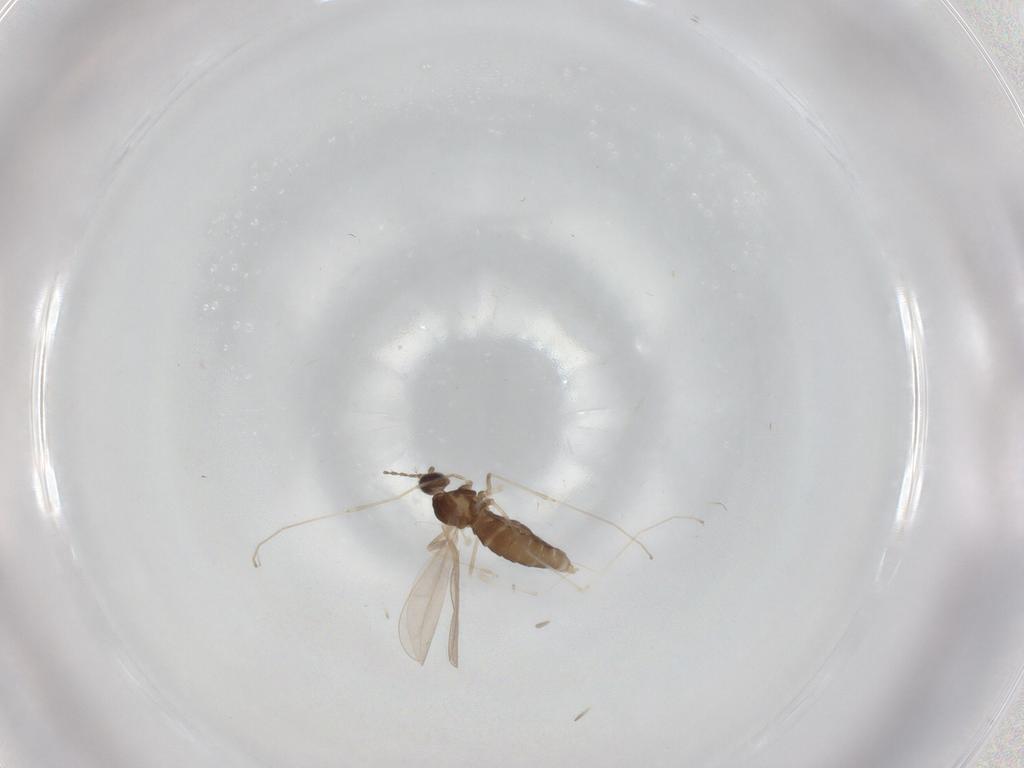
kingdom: Animalia
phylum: Arthropoda
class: Insecta
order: Diptera
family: Cecidomyiidae
